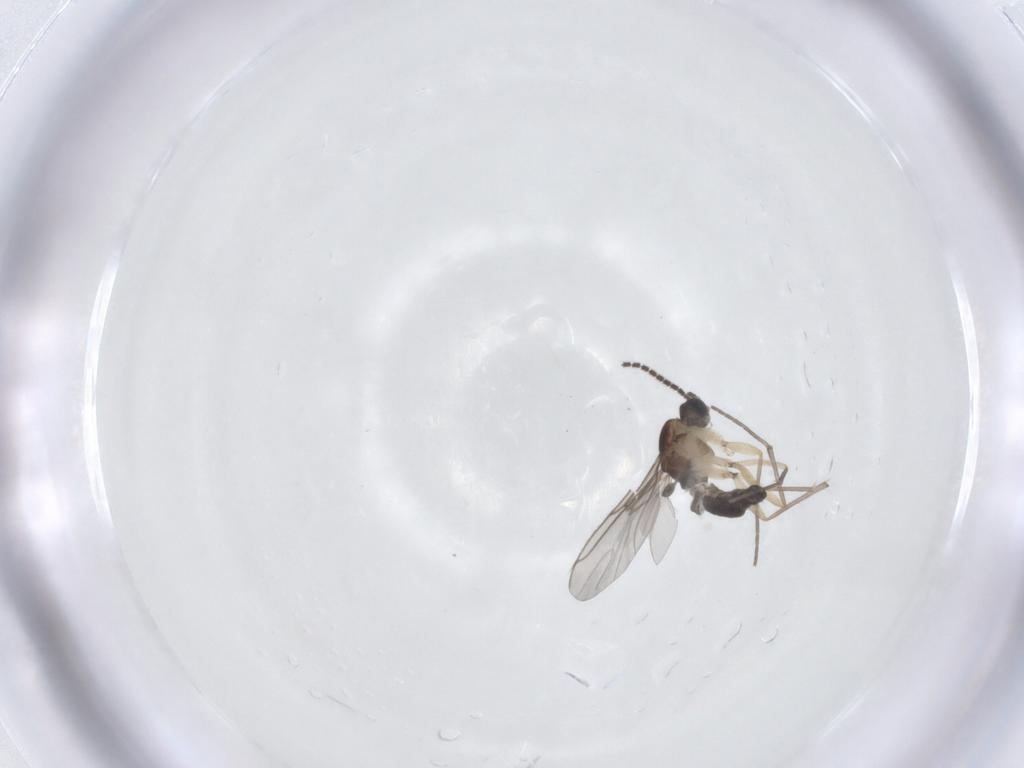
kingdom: Animalia
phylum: Arthropoda
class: Insecta
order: Diptera
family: Sciaridae
